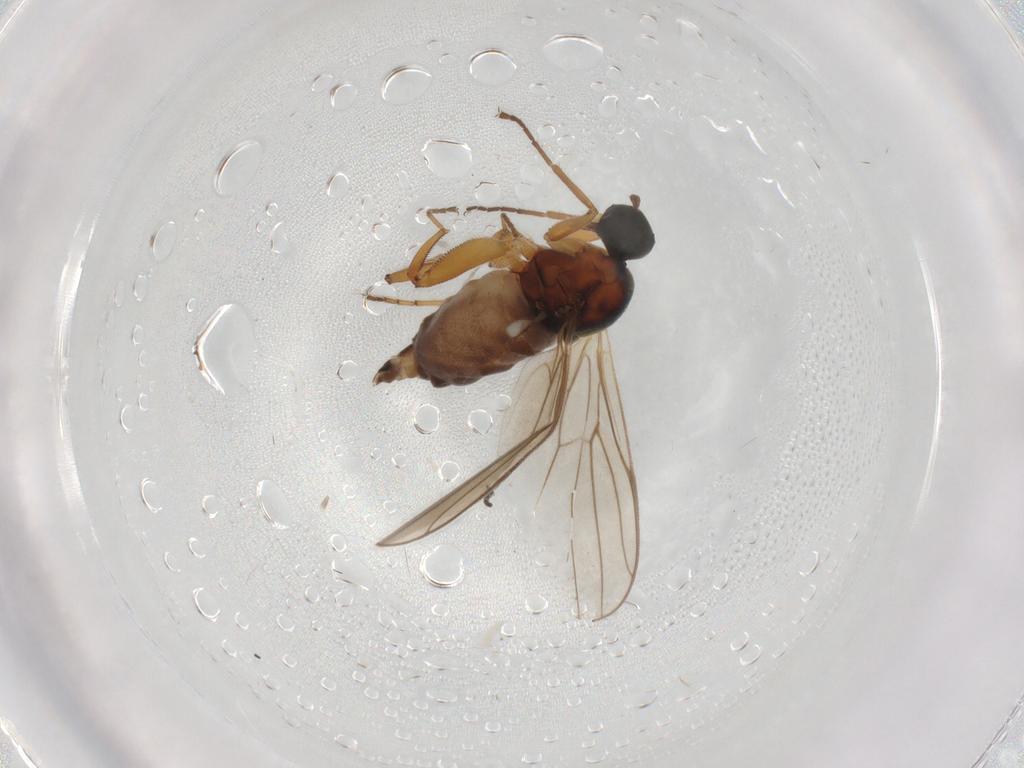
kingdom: Animalia
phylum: Arthropoda
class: Insecta
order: Diptera
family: Hybotidae
